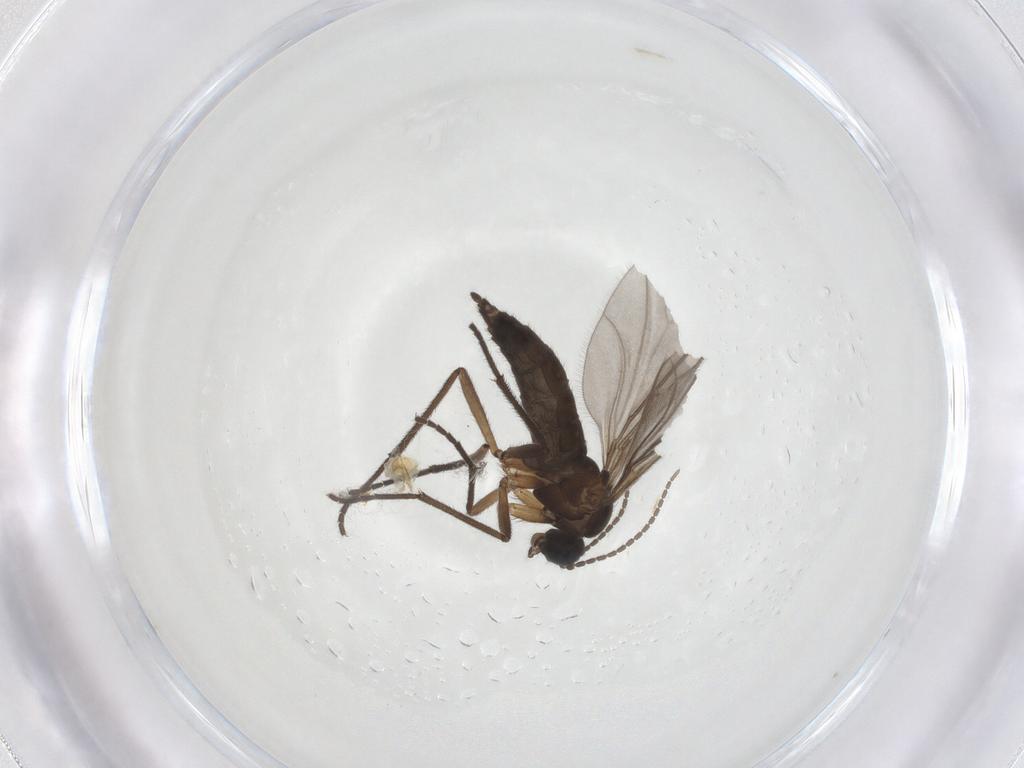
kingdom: Animalia
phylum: Arthropoda
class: Insecta
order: Diptera
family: Sciaridae
